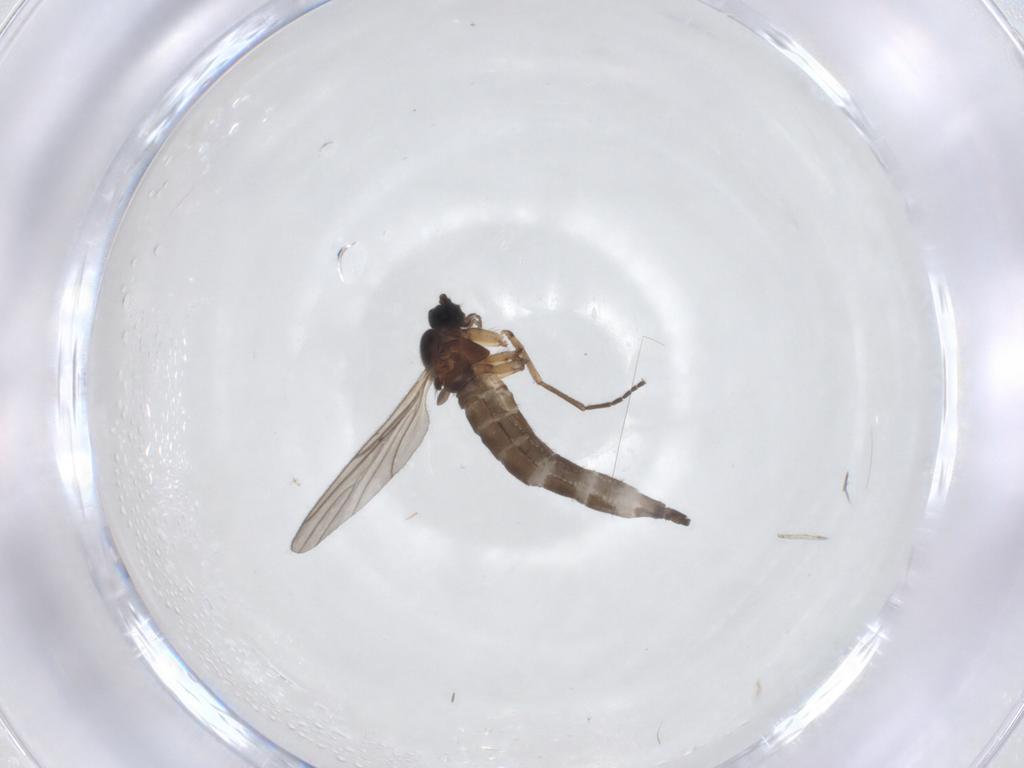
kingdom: Animalia
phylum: Arthropoda
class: Insecta
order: Diptera
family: Sciaridae
